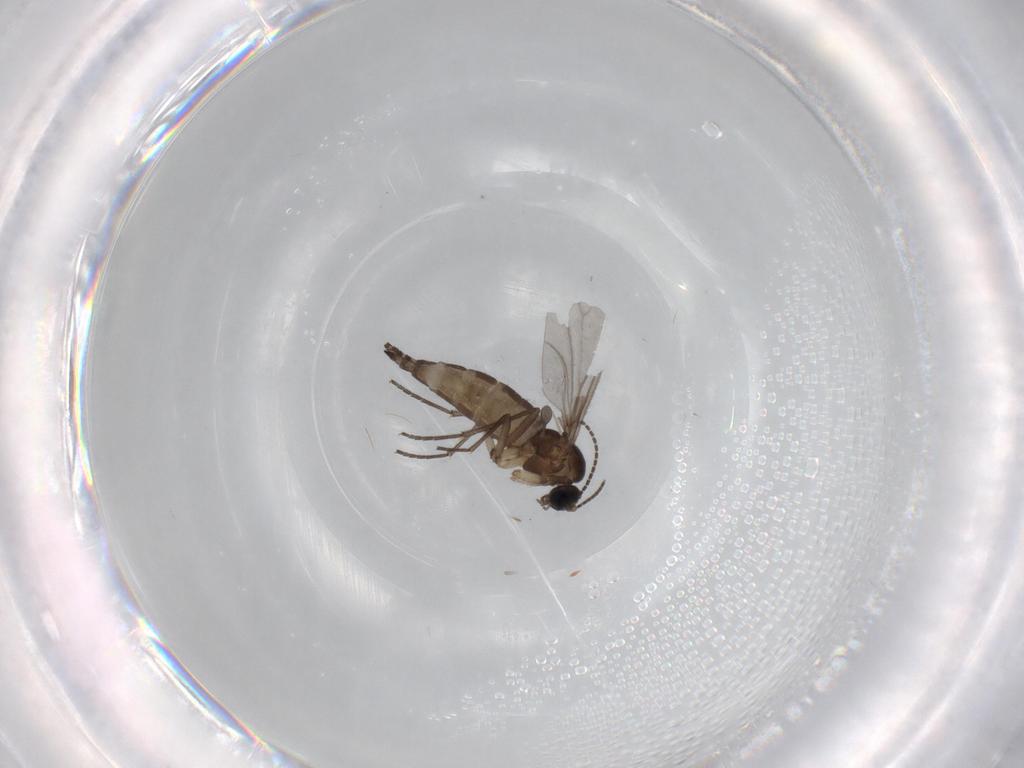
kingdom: Animalia
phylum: Arthropoda
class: Insecta
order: Diptera
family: Sciaridae
